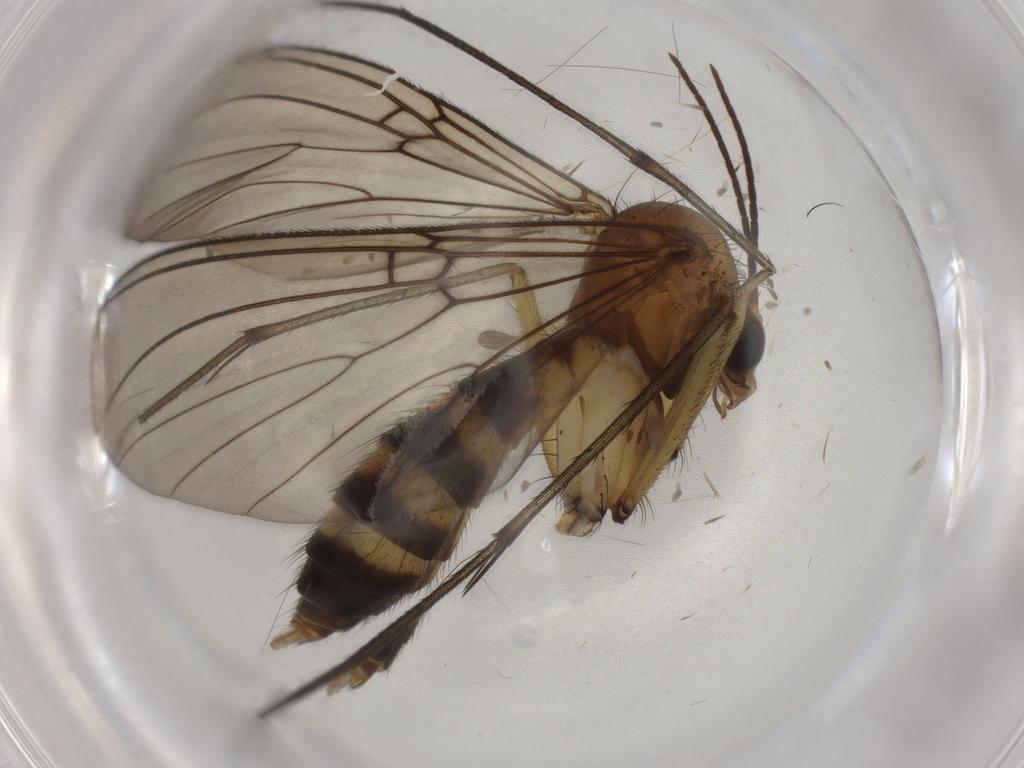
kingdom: Animalia
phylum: Arthropoda
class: Insecta
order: Diptera
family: Mycetophilidae
